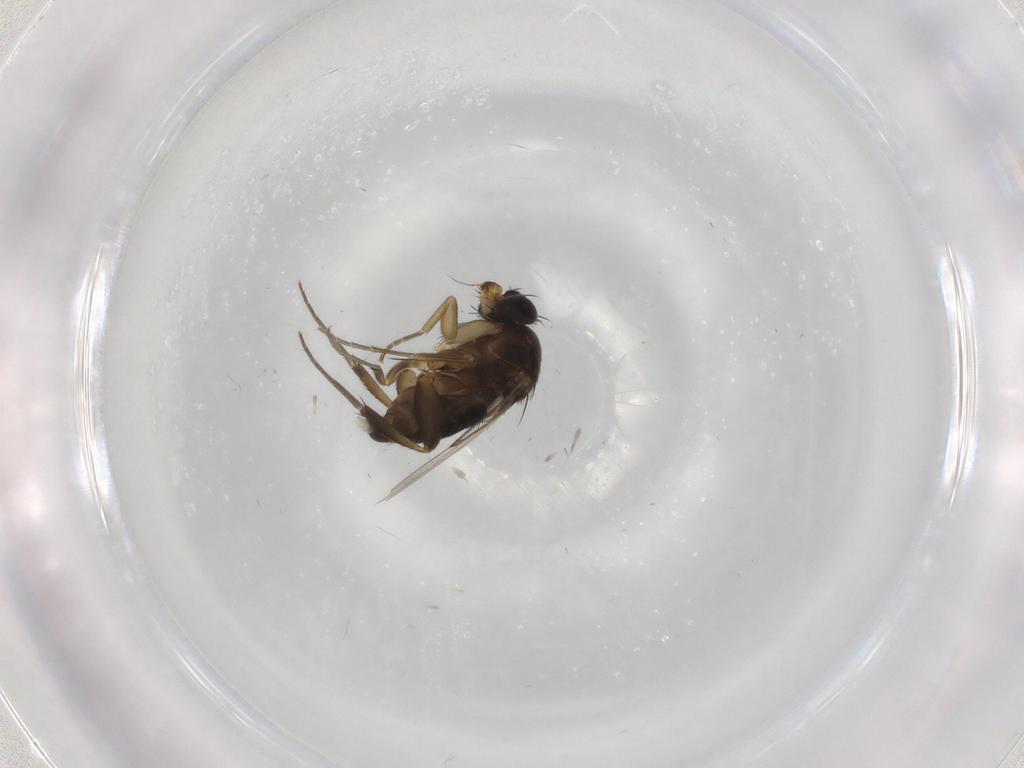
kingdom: Animalia
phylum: Arthropoda
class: Insecta
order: Diptera
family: Phoridae
